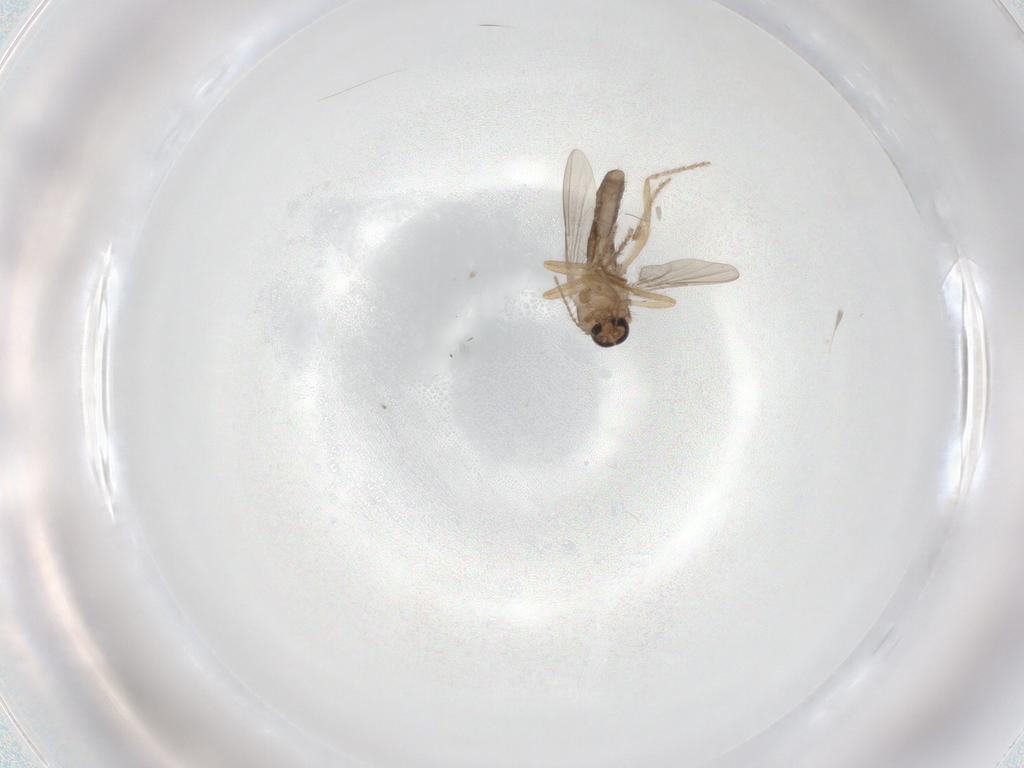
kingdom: Animalia
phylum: Arthropoda
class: Insecta
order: Diptera
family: Ceratopogonidae
